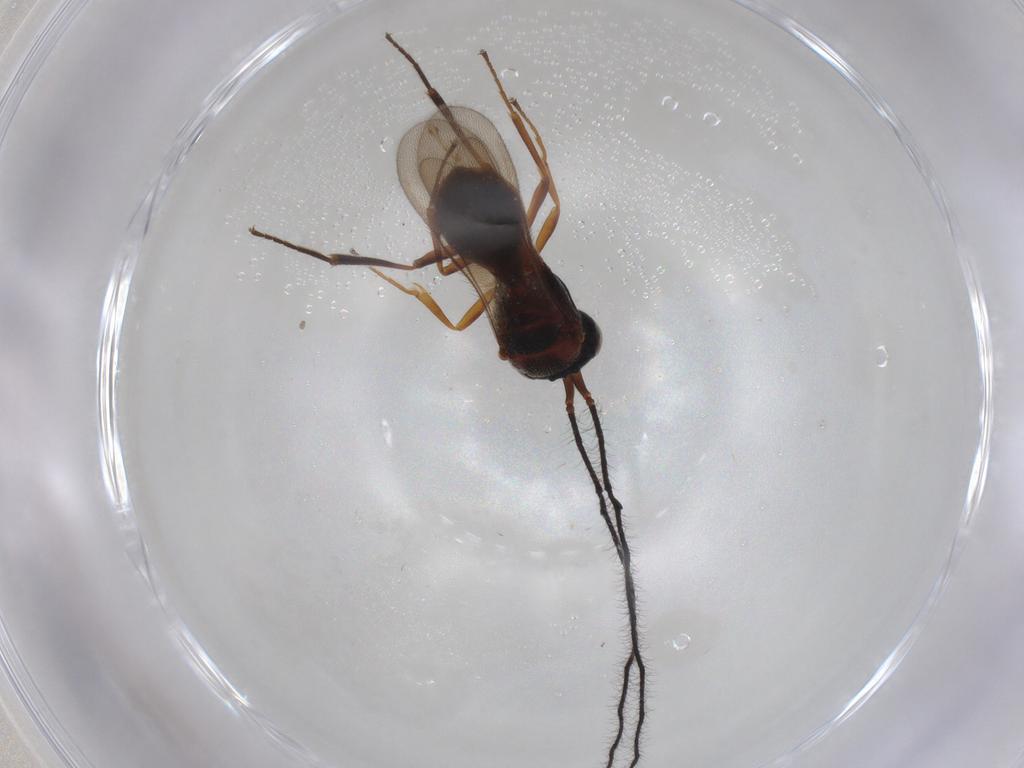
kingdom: Animalia
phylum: Arthropoda
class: Insecta
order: Hymenoptera
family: Scelionidae
